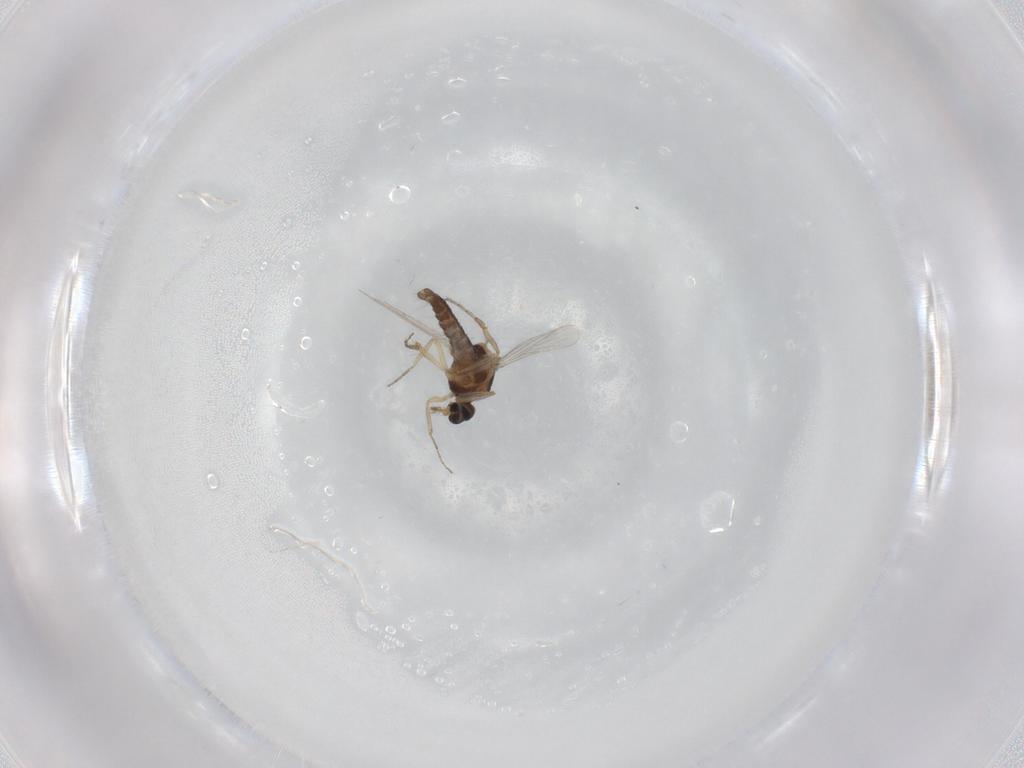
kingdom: Animalia
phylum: Arthropoda
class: Insecta
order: Diptera
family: Ceratopogonidae
